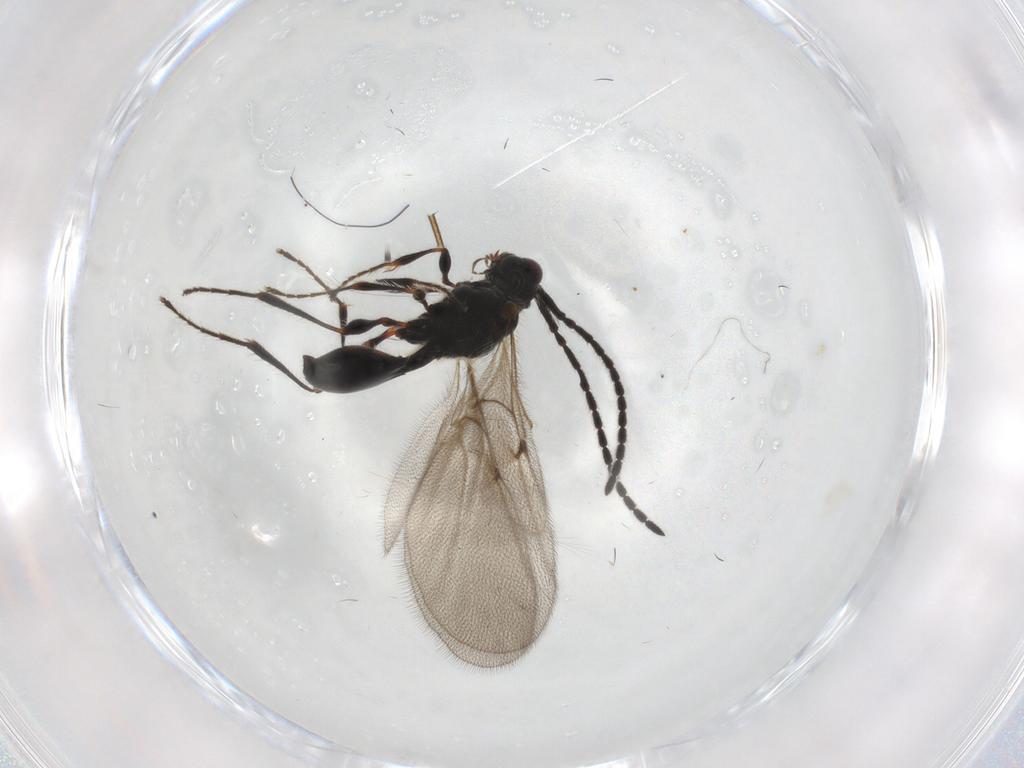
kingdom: Animalia
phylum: Arthropoda
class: Insecta
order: Hymenoptera
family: Diapriidae
